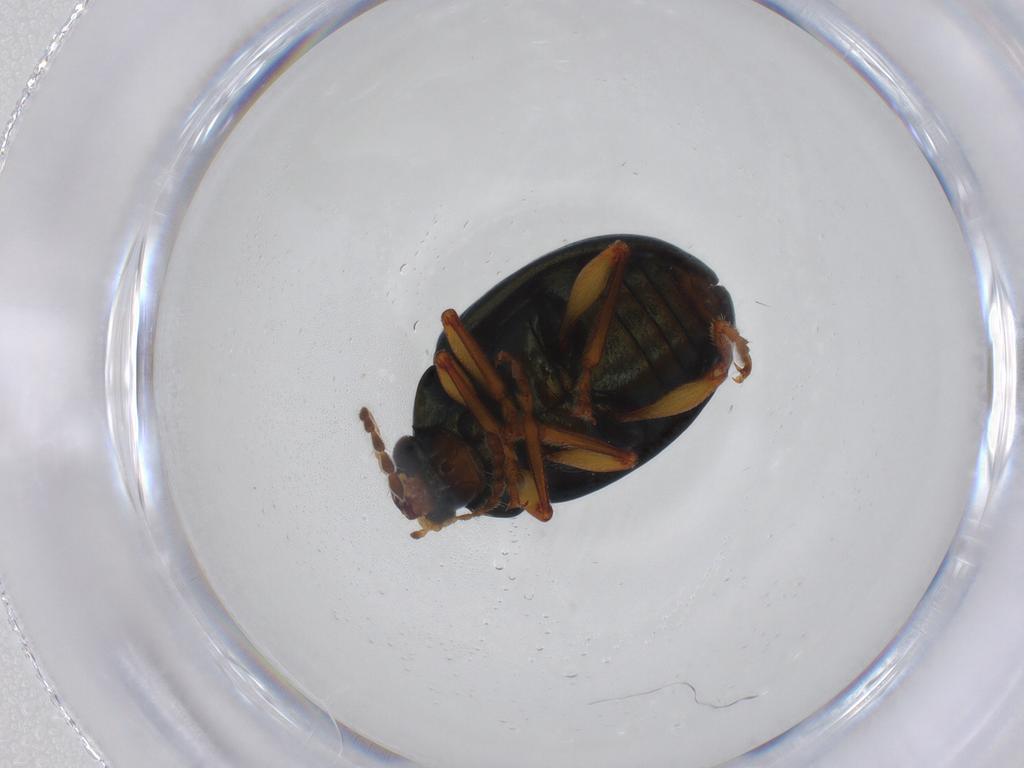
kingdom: Animalia
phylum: Arthropoda
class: Insecta
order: Coleoptera
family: Chrysomelidae
